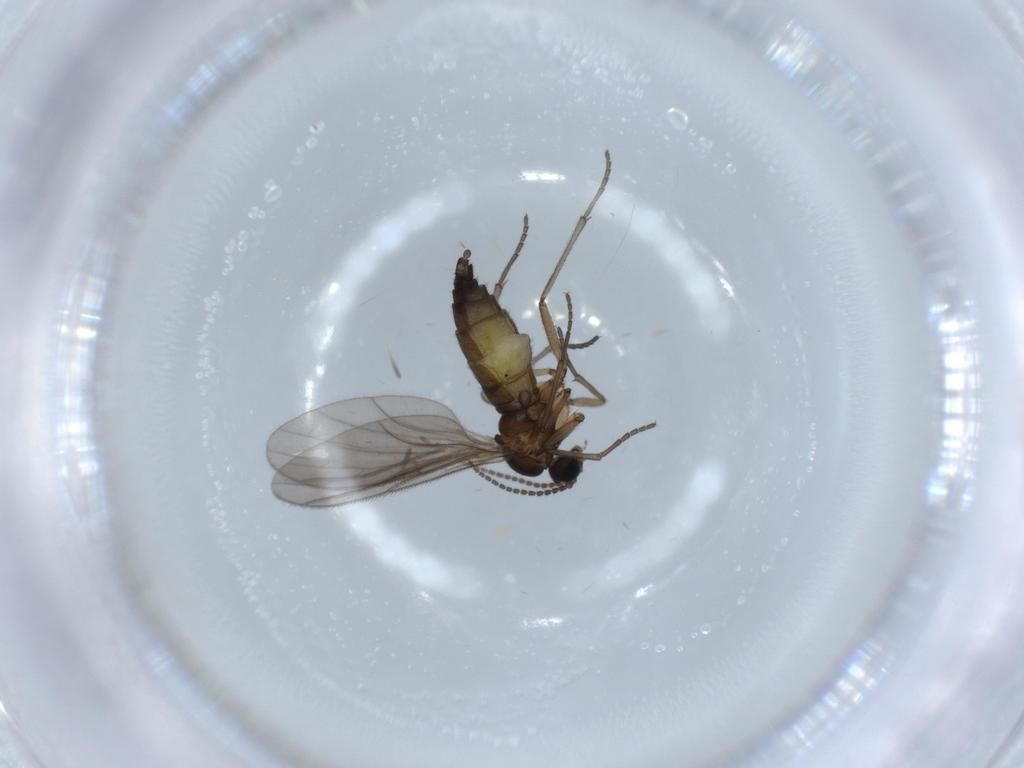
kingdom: Animalia
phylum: Arthropoda
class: Insecta
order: Diptera
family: Sciaridae
